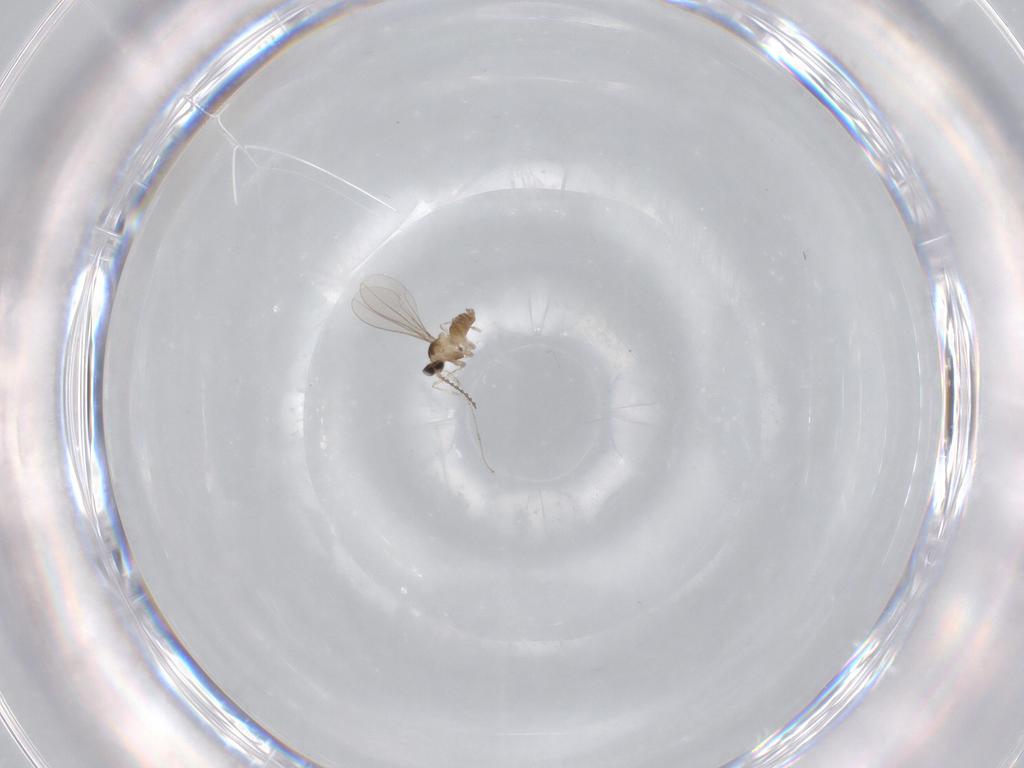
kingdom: Animalia
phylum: Arthropoda
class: Insecta
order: Diptera
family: Cecidomyiidae
